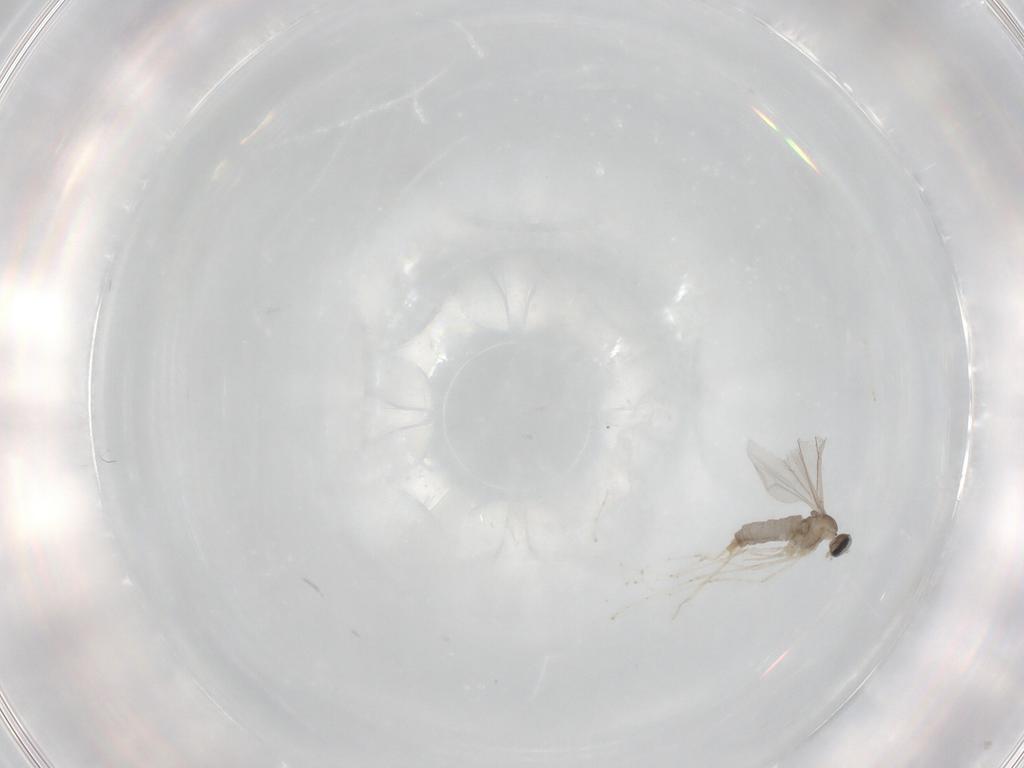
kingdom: Animalia
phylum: Arthropoda
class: Insecta
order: Diptera
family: Cecidomyiidae
